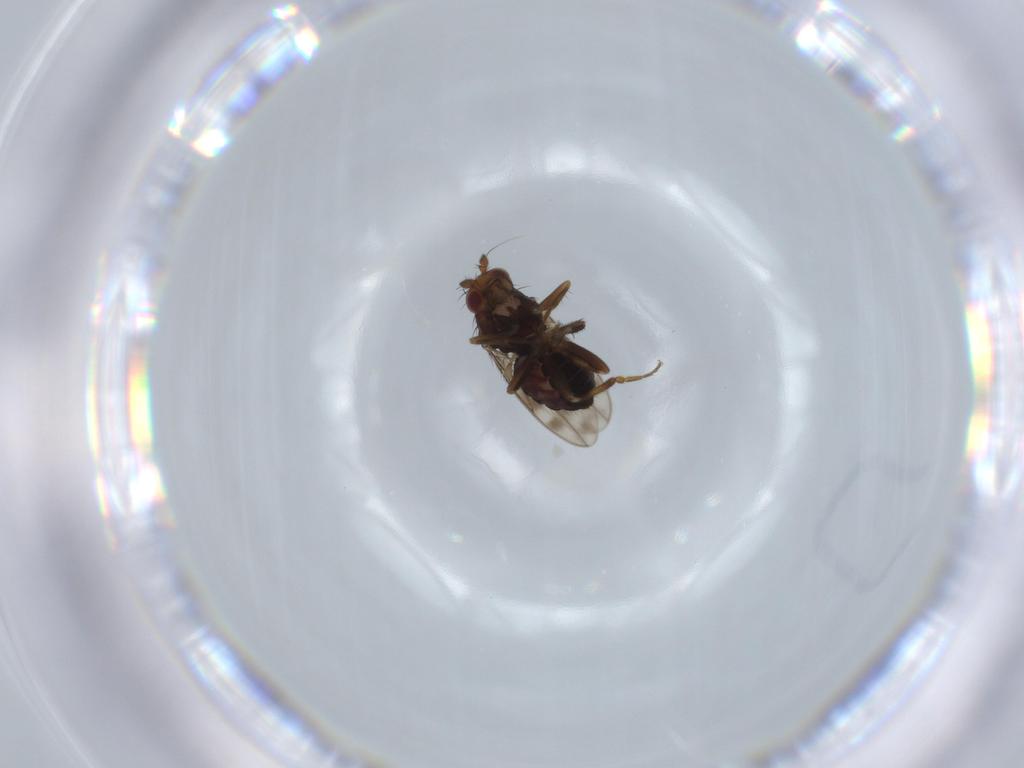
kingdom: Animalia
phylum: Arthropoda
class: Insecta
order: Diptera
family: Sphaeroceridae
